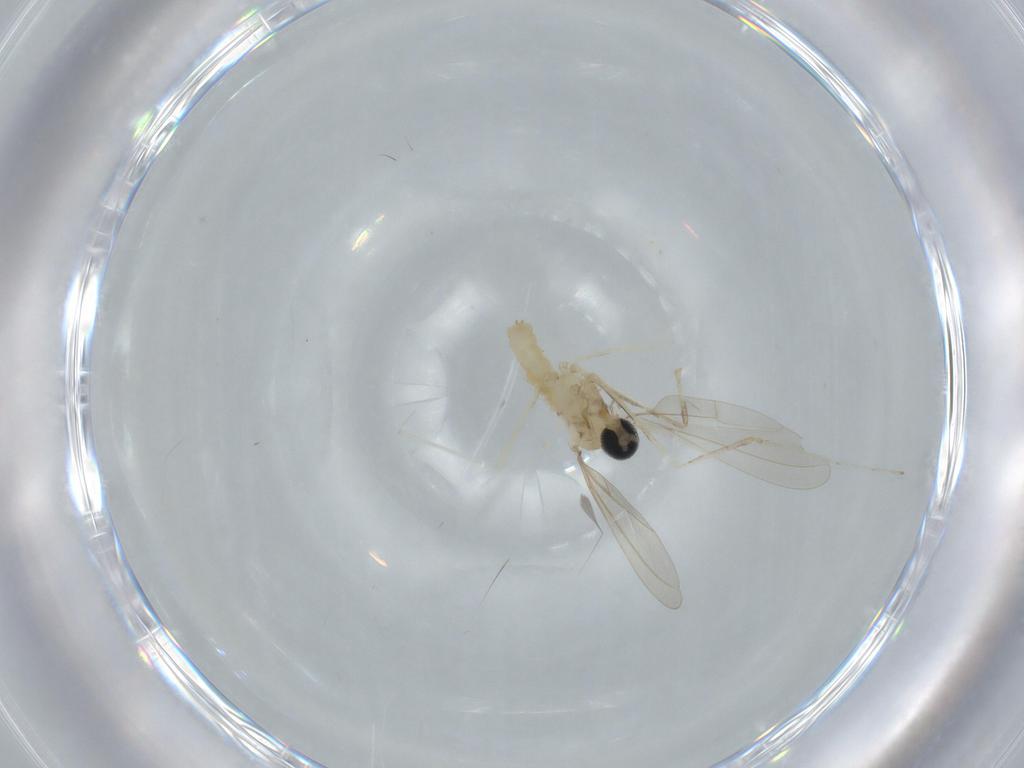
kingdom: Animalia
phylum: Arthropoda
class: Insecta
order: Diptera
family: Cecidomyiidae
